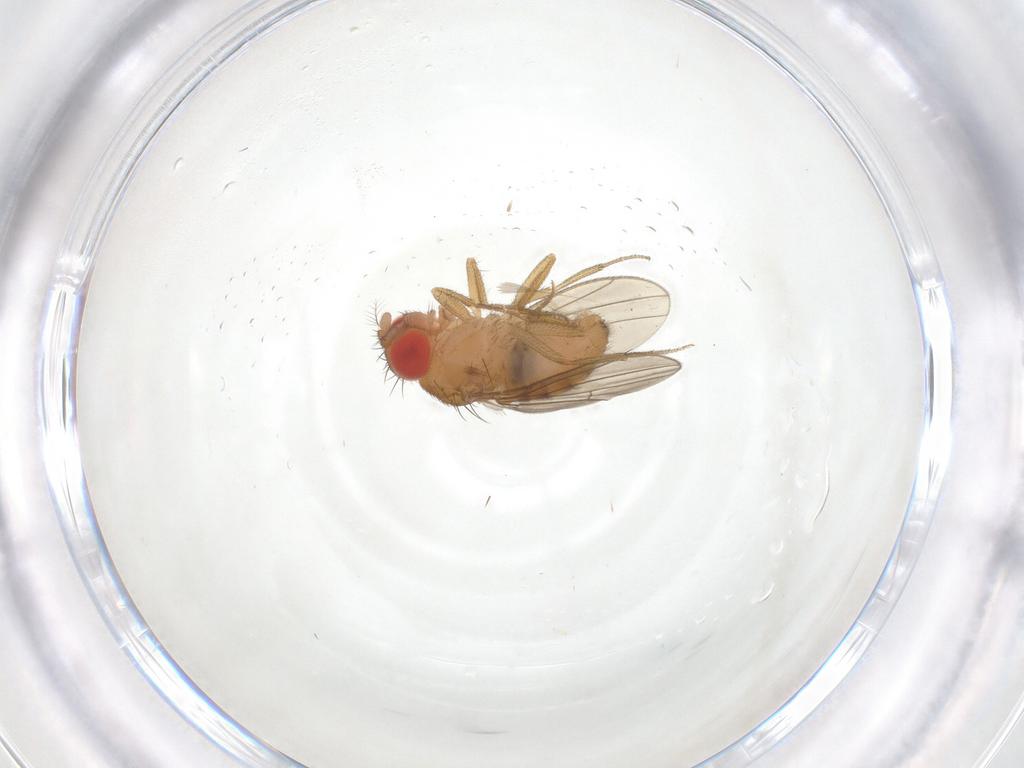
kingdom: Animalia
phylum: Arthropoda
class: Insecta
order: Diptera
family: Drosophilidae
